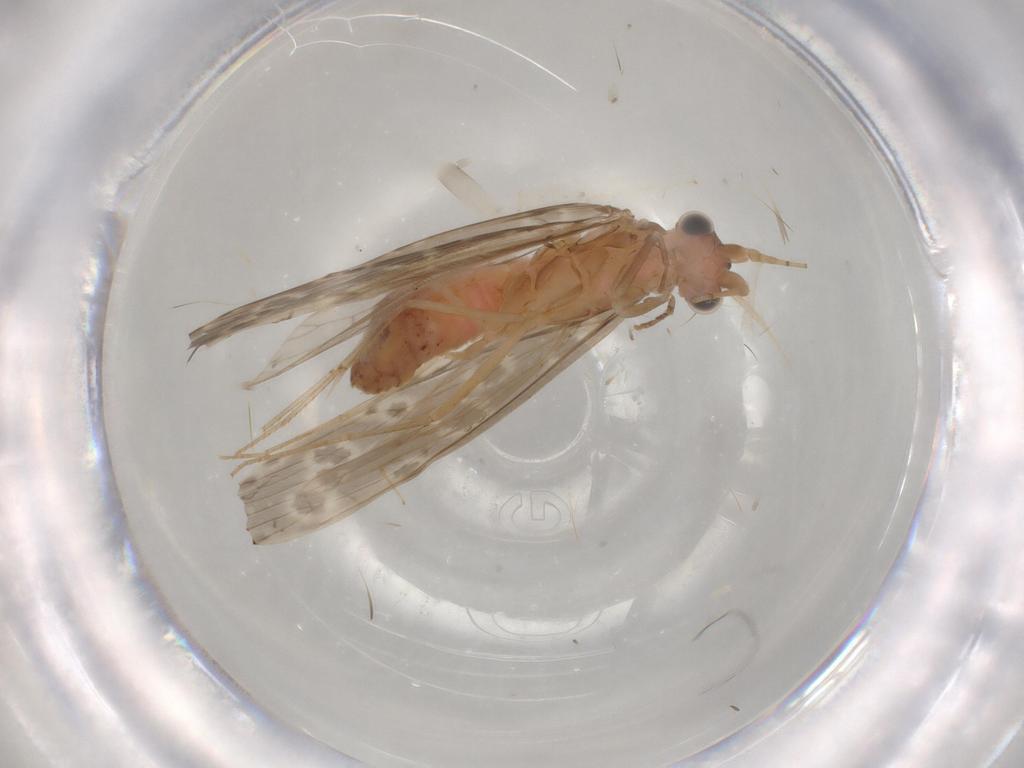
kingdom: Animalia
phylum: Arthropoda
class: Insecta
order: Trichoptera
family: Leptoceridae
